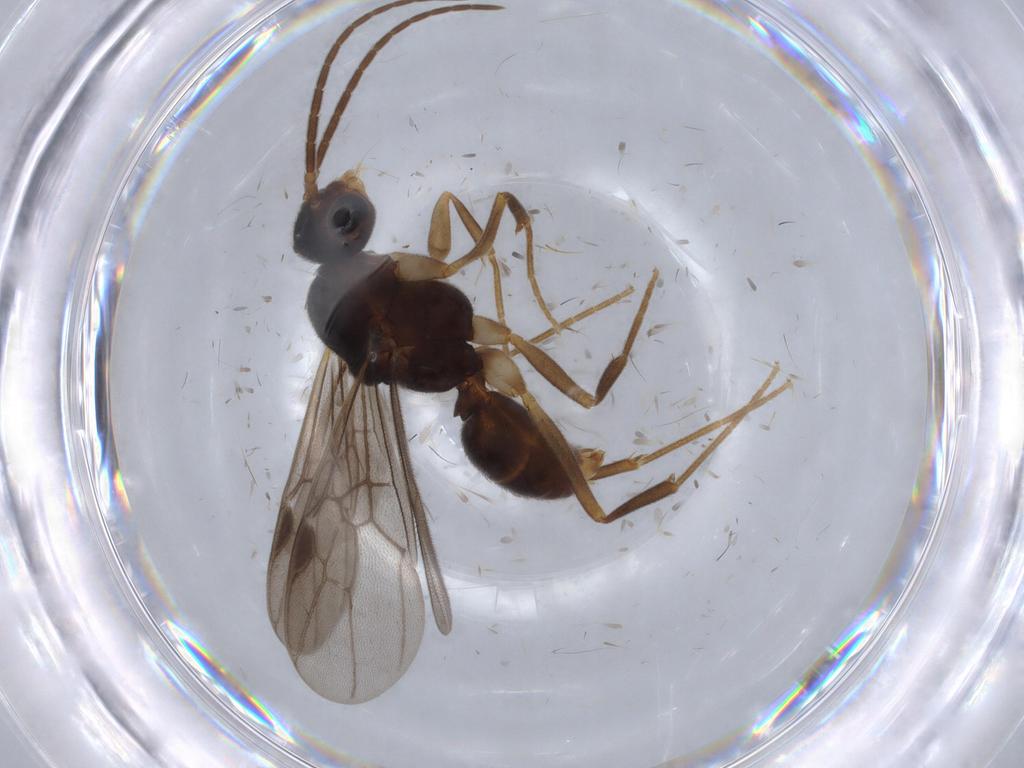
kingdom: Animalia
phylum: Arthropoda
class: Insecta
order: Hymenoptera
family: Formicidae
